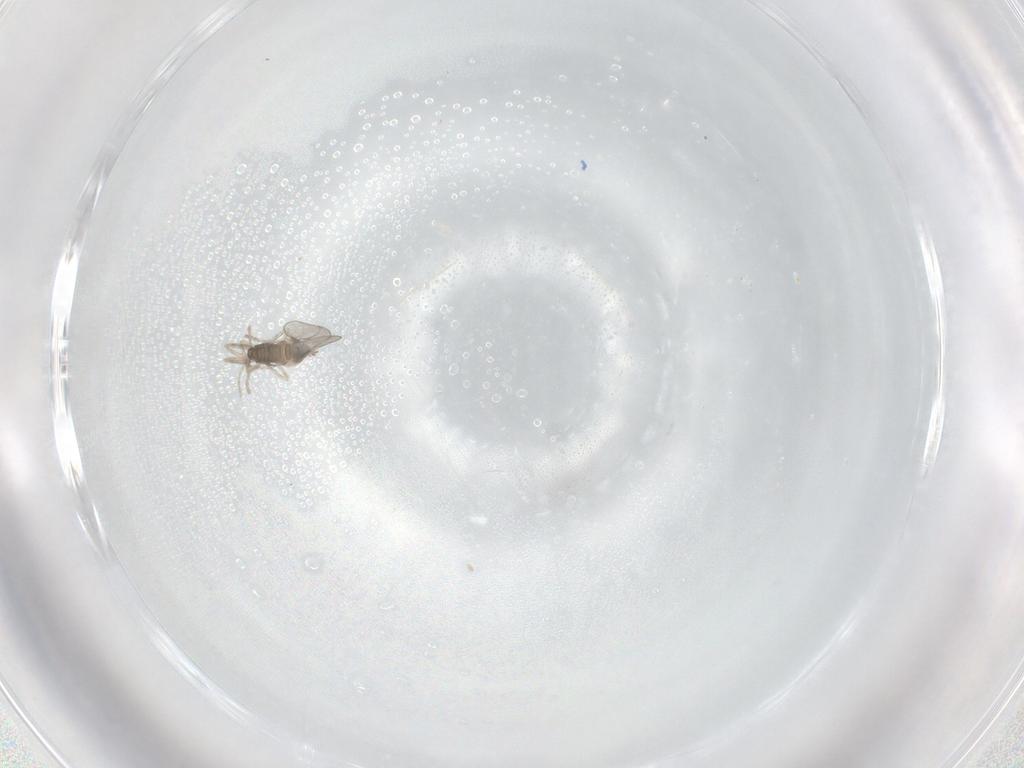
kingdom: Animalia
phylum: Arthropoda
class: Insecta
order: Diptera
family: Cecidomyiidae
